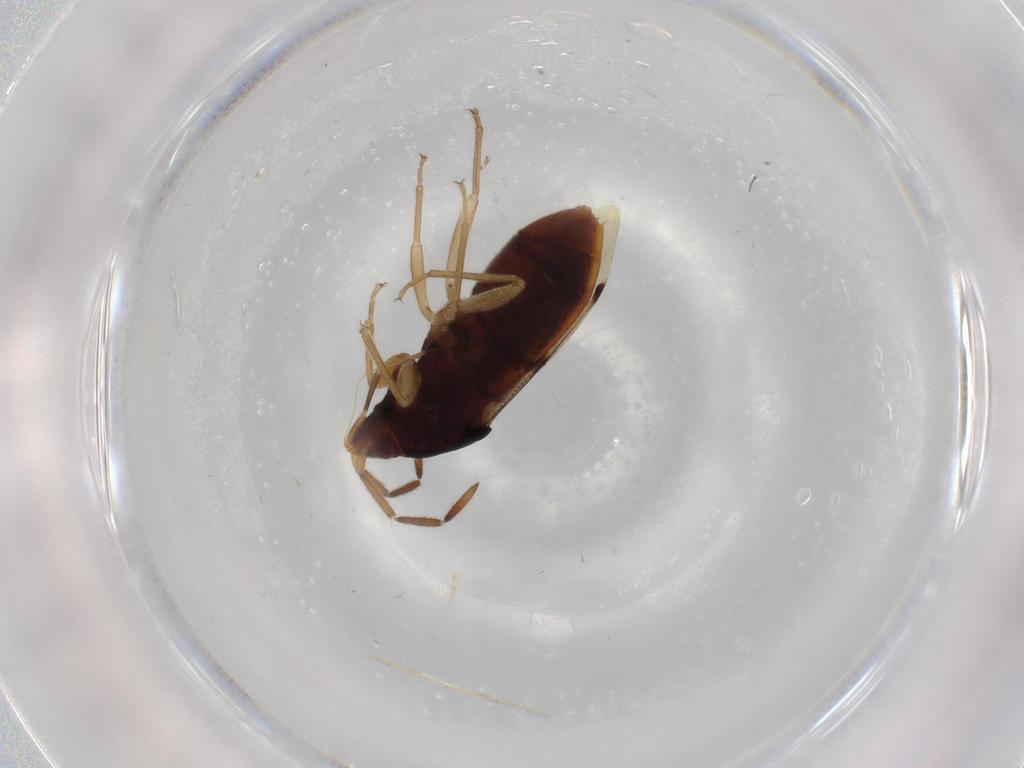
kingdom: Animalia
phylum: Arthropoda
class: Insecta
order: Hemiptera
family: Rhyparochromidae
